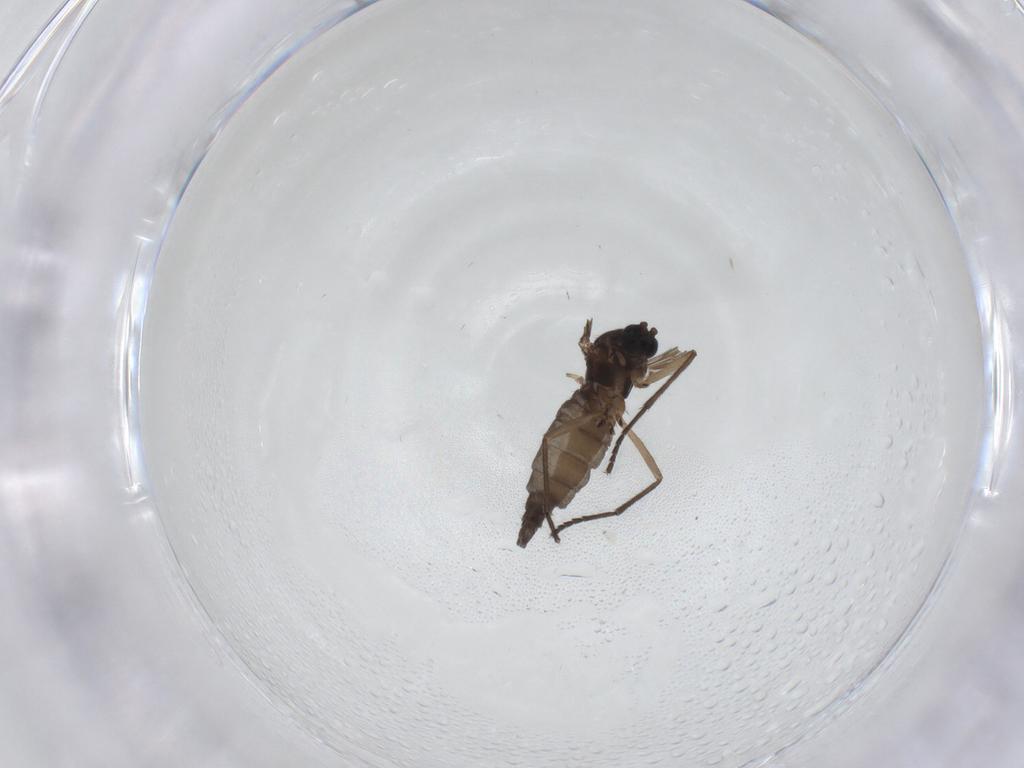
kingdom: Animalia
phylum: Arthropoda
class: Insecta
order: Diptera
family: Sciaridae
